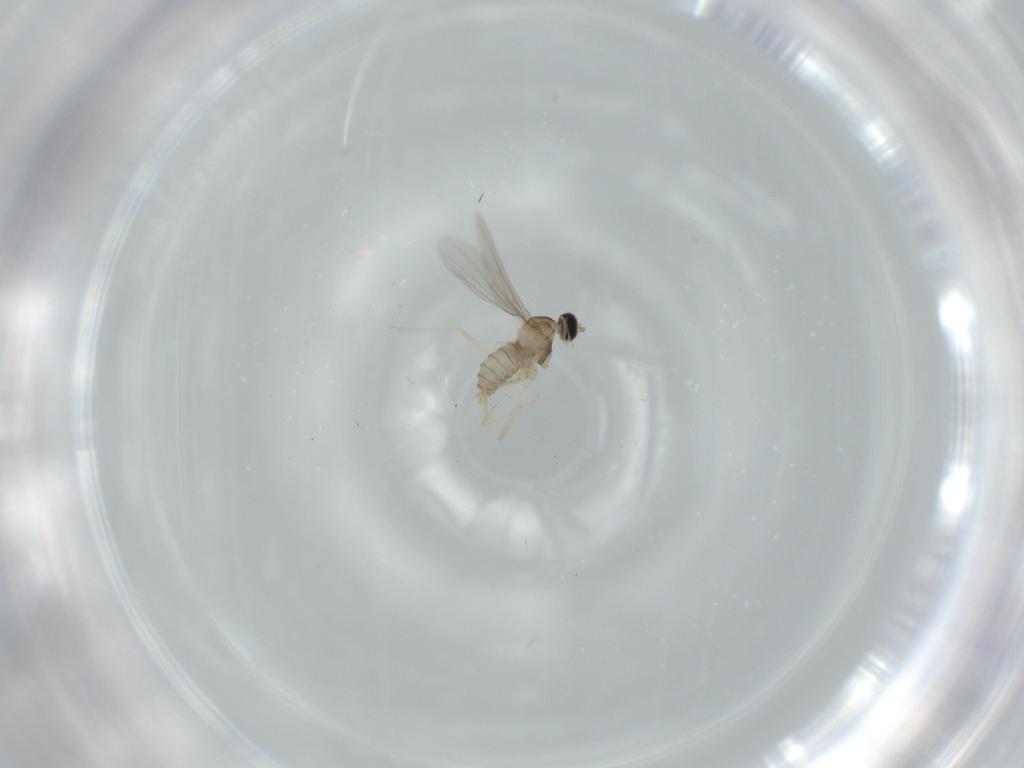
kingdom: Animalia
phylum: Arthropoda
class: Insecta
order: Diptera
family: Cecidomyiidae
